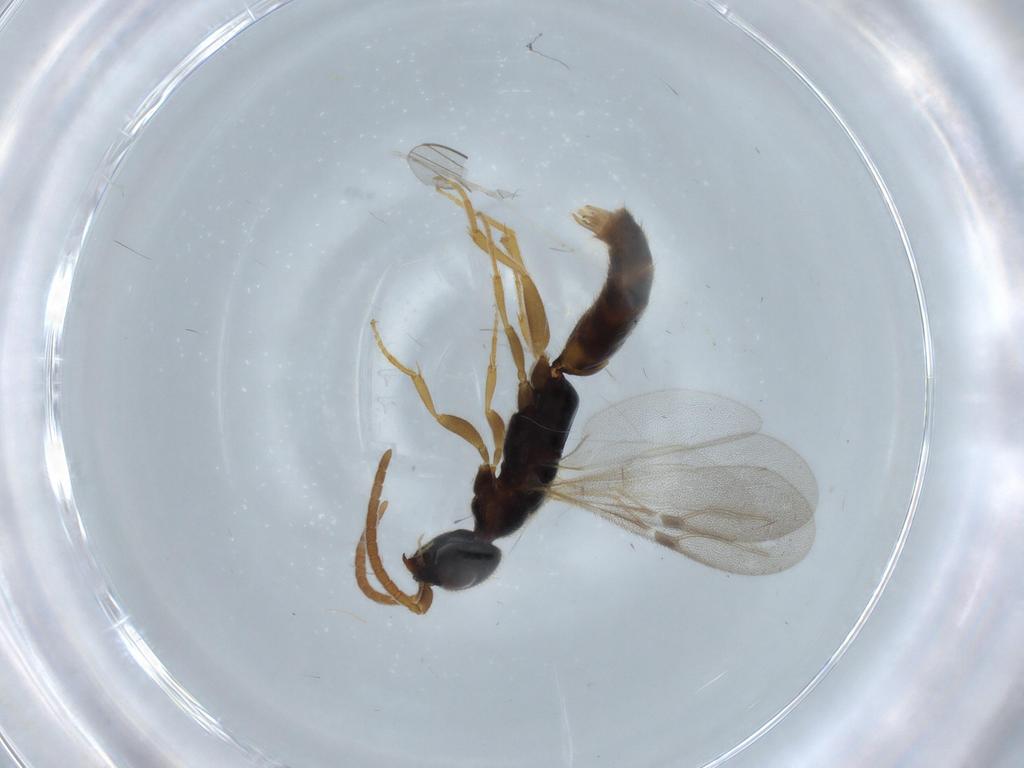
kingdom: Animalia
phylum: Arthropoda
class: Insecta
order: Hymenoptera
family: Bethylidae
